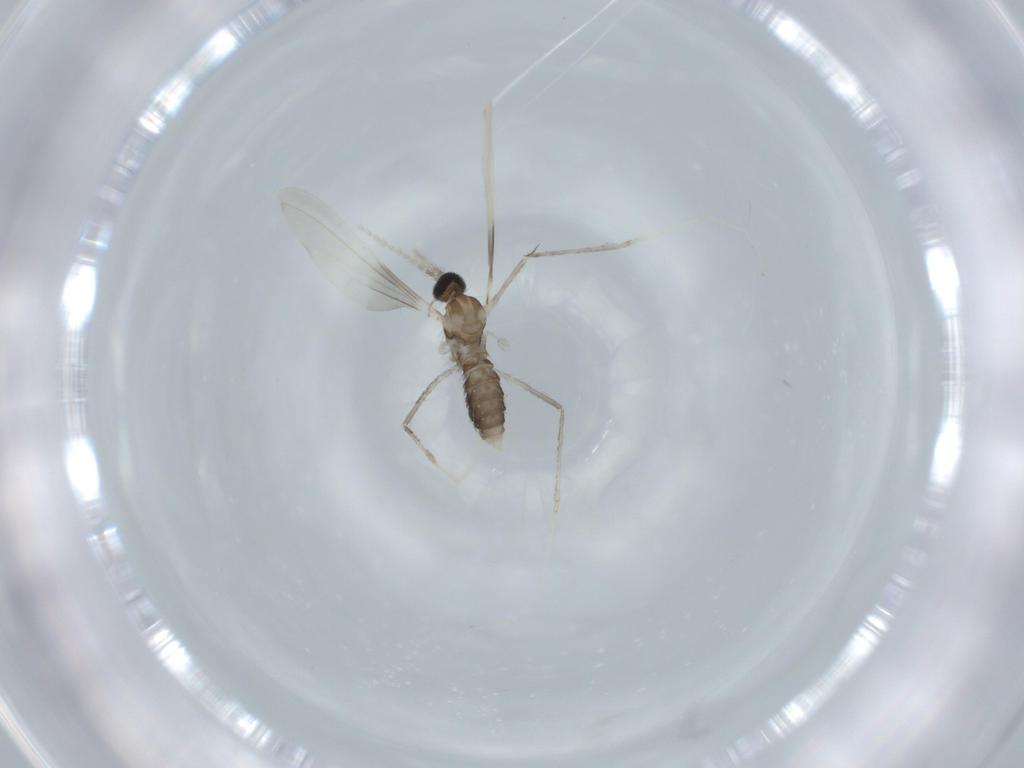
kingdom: Animalia
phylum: Arthropoda
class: Insecta
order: Diptera
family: Cecidomyiidae
